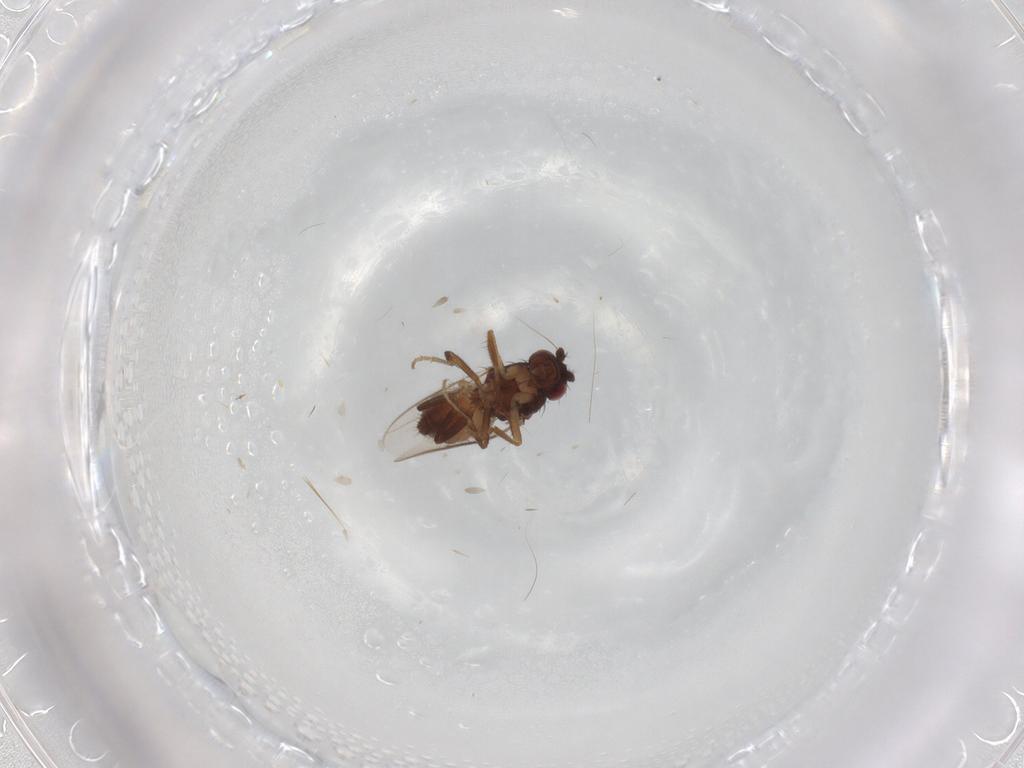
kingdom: Animalia
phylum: Arthropoda
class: Insecta
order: Diptera
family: Sphaeroceridae
